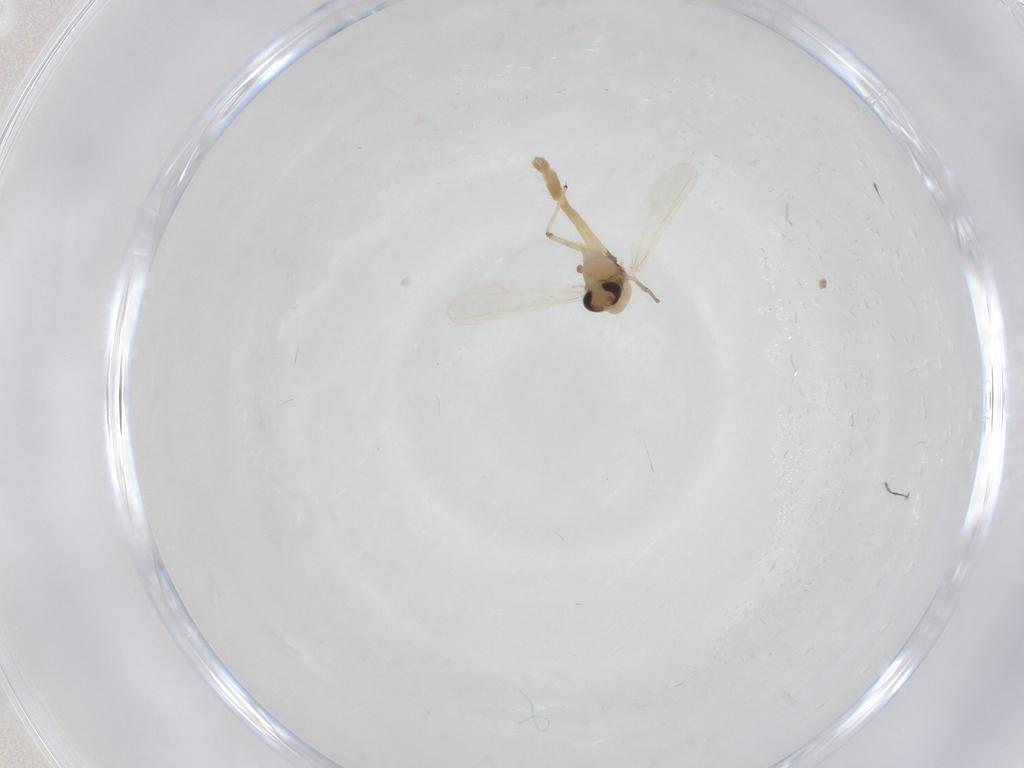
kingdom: Animalia
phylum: Arthropoda
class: Insecta
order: Diptera
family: Chironomidae
